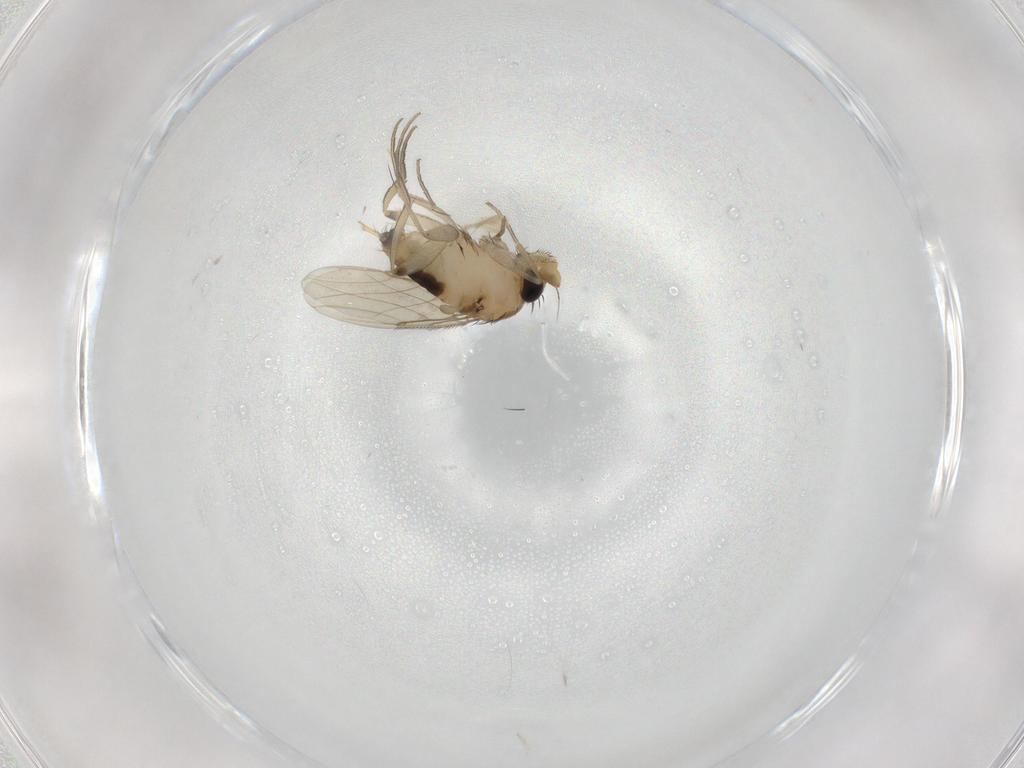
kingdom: Animalia
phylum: Arthropoda
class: Insecta
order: Diptera
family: Phoridae
